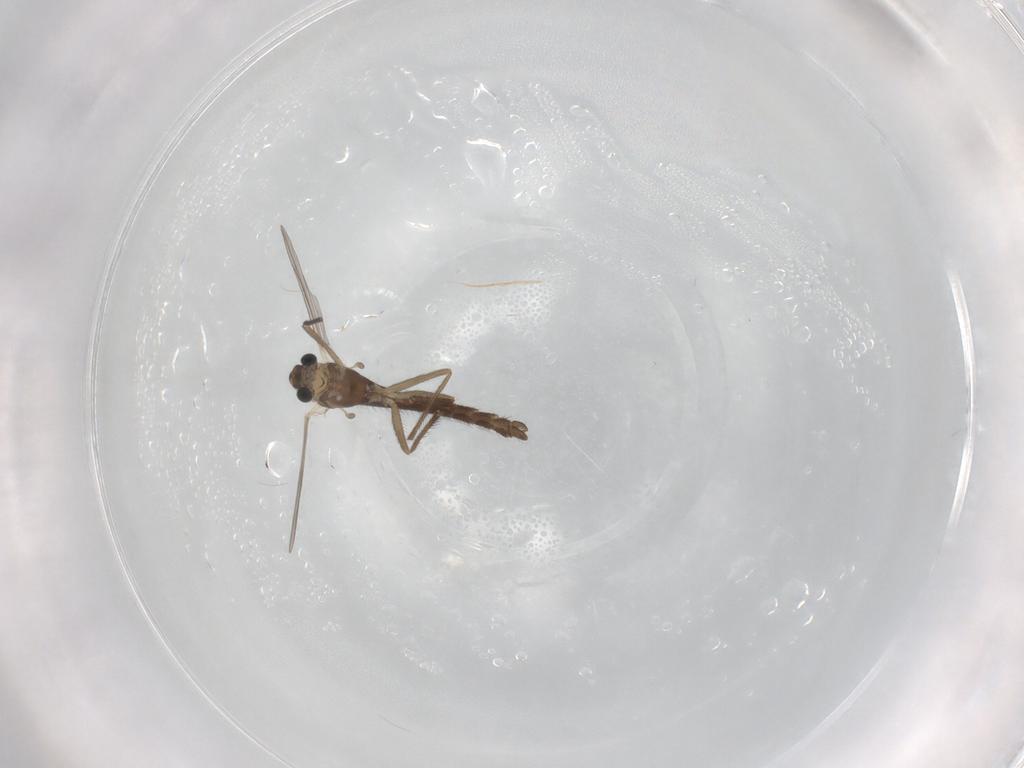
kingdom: Animalia
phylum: Arthropoda
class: Insecta
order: Diptera
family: Chironomidae
